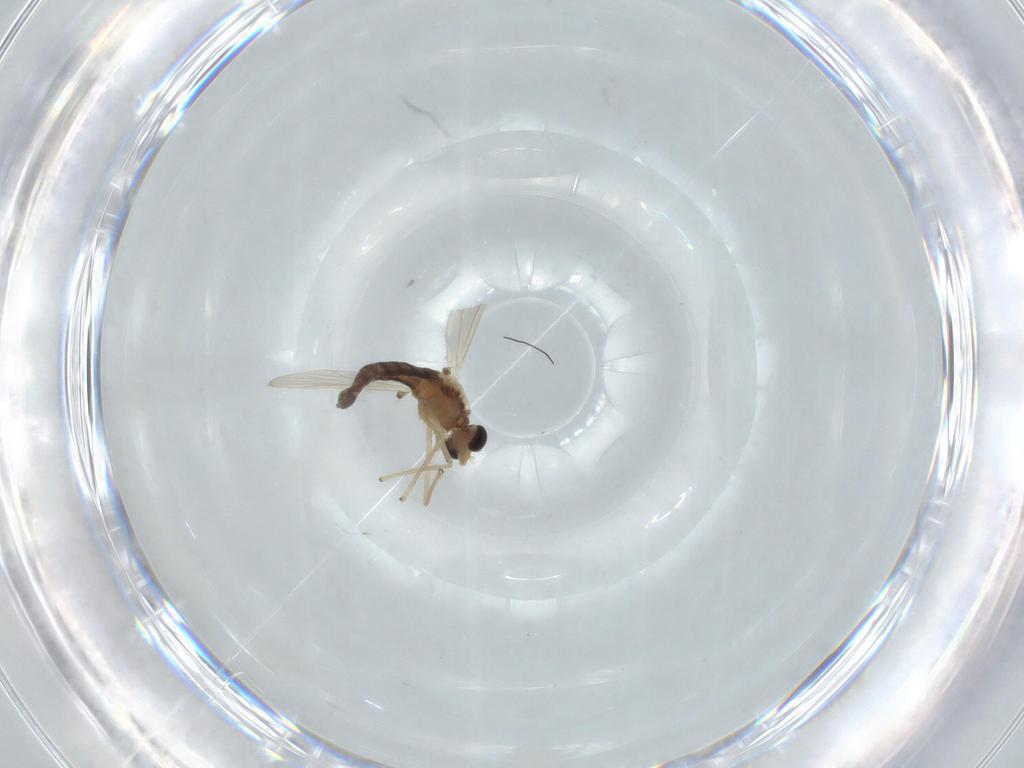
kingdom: Animalia
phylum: Arthropoda
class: Insecta
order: Diptera
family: Chironomidae
